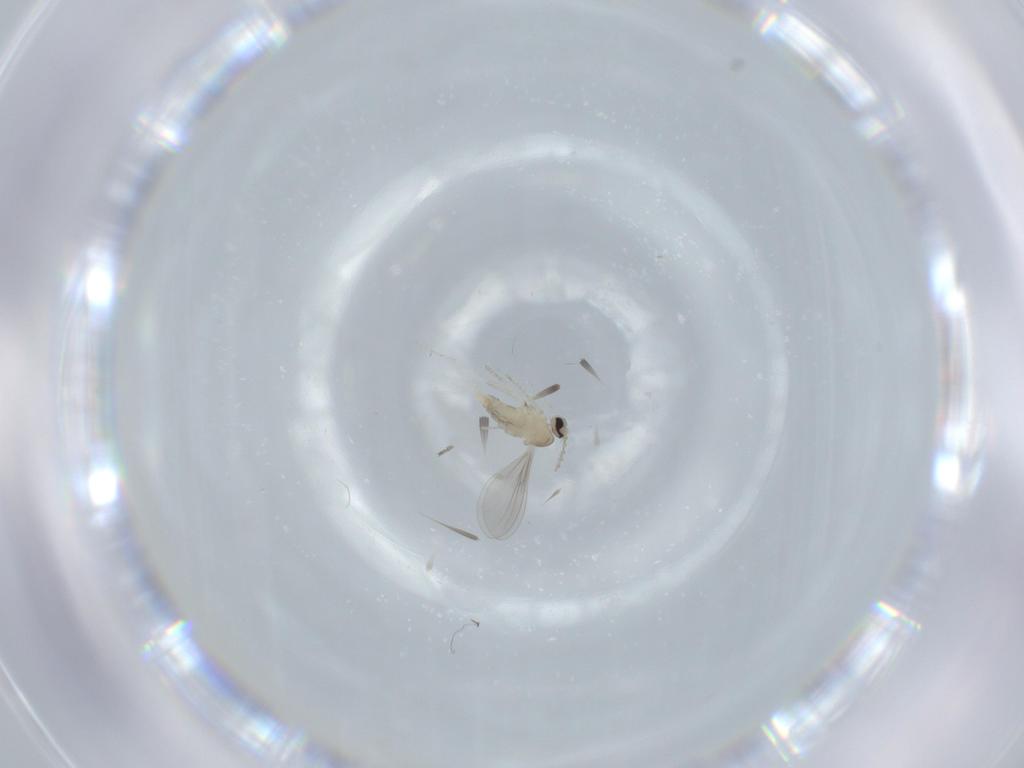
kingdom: Animalia
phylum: Arthropoda
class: Insecta
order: Diptera
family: Cecidomyiidae
